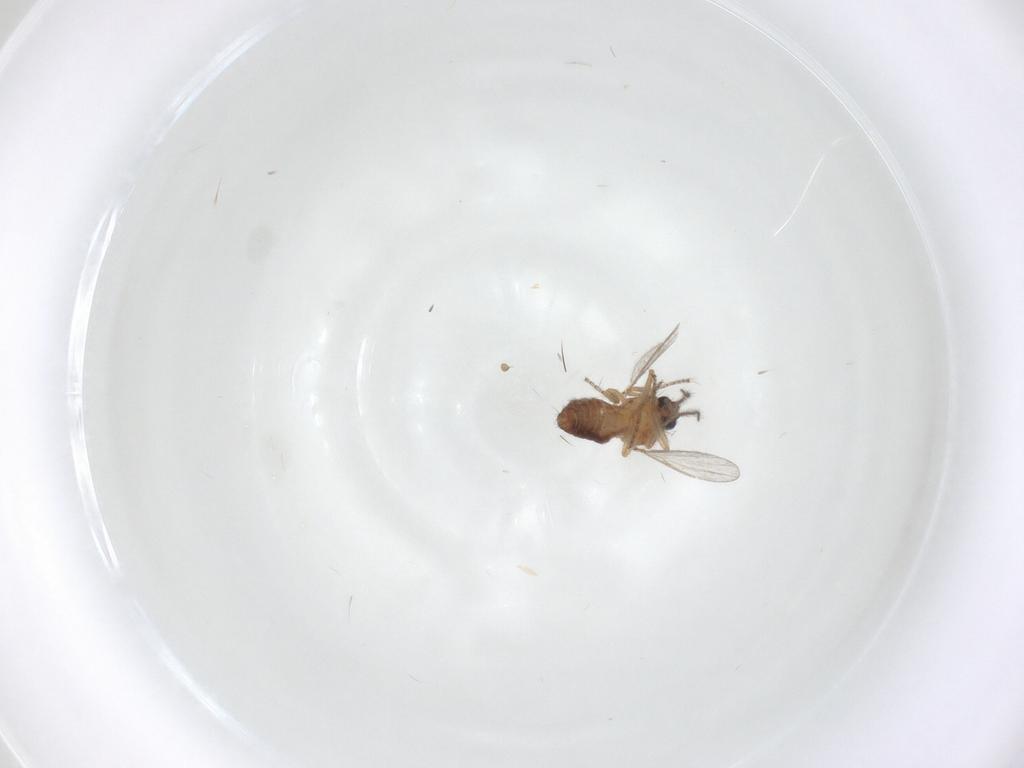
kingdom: Animalia
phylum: Arthropoda
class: Insecta
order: Diptera
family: Ceratopogonidae
